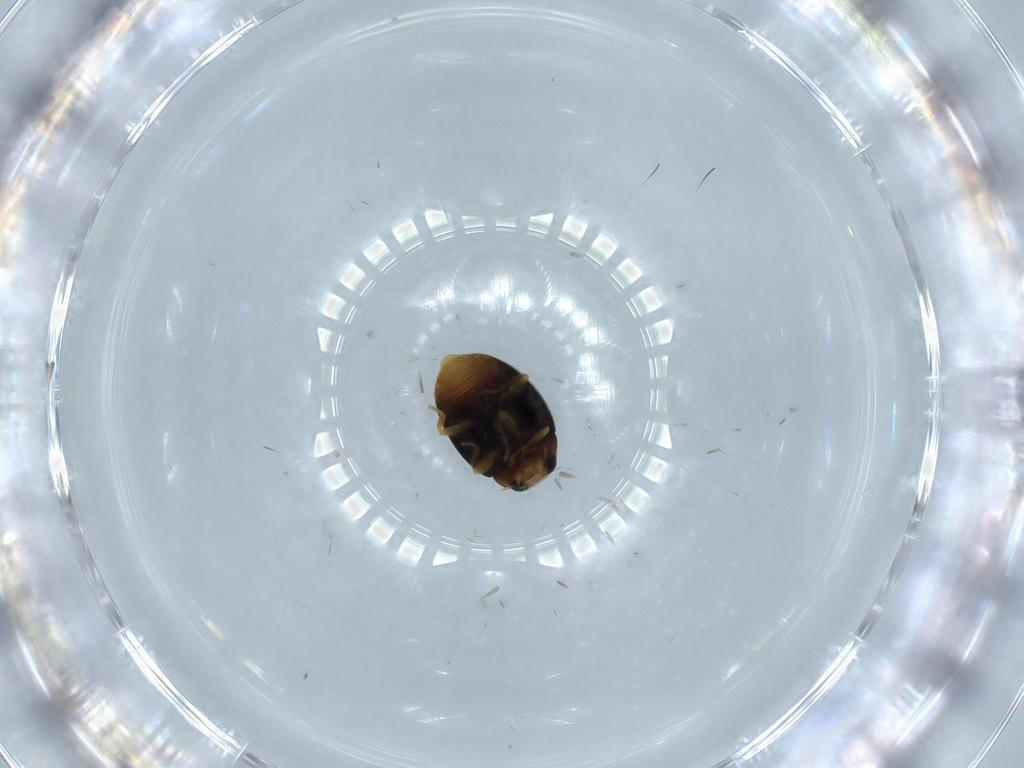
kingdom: Animalia
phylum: Arthropoda
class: Insecta
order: Coleoptera
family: Coccinellidae
